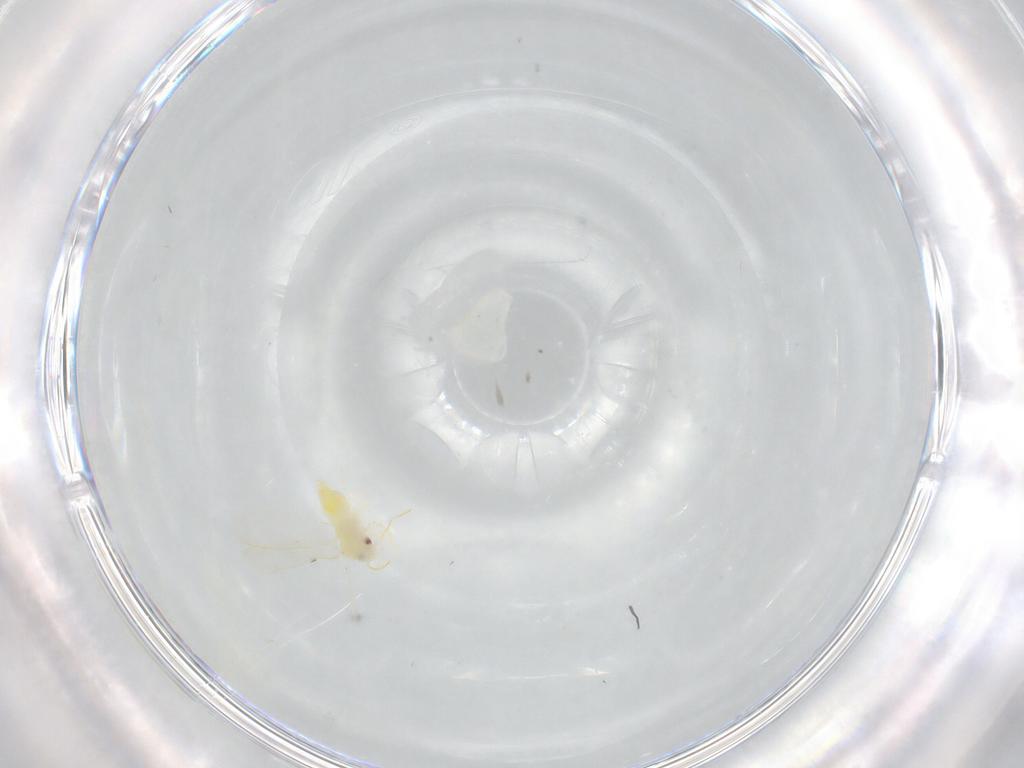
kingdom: Animalia
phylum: Arthropoda
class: Insecta
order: Hemiptera
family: Aleyrodidae
